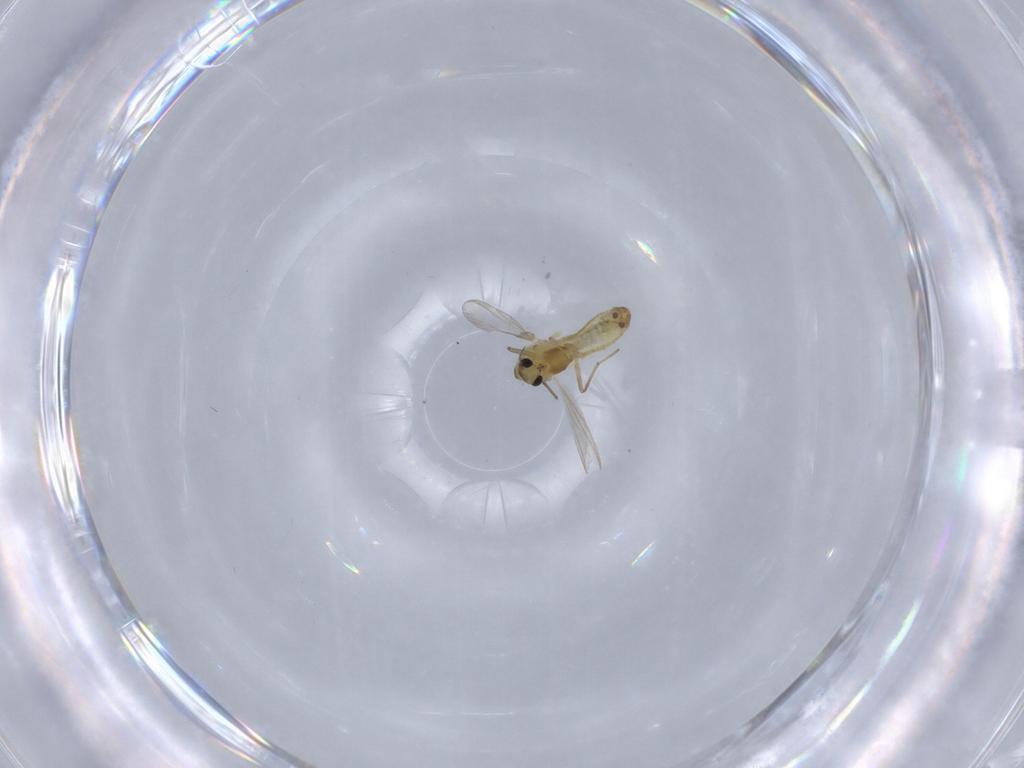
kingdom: Animalia
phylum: Arthropoda
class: Insecta
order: Diptera
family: Chironomidae
